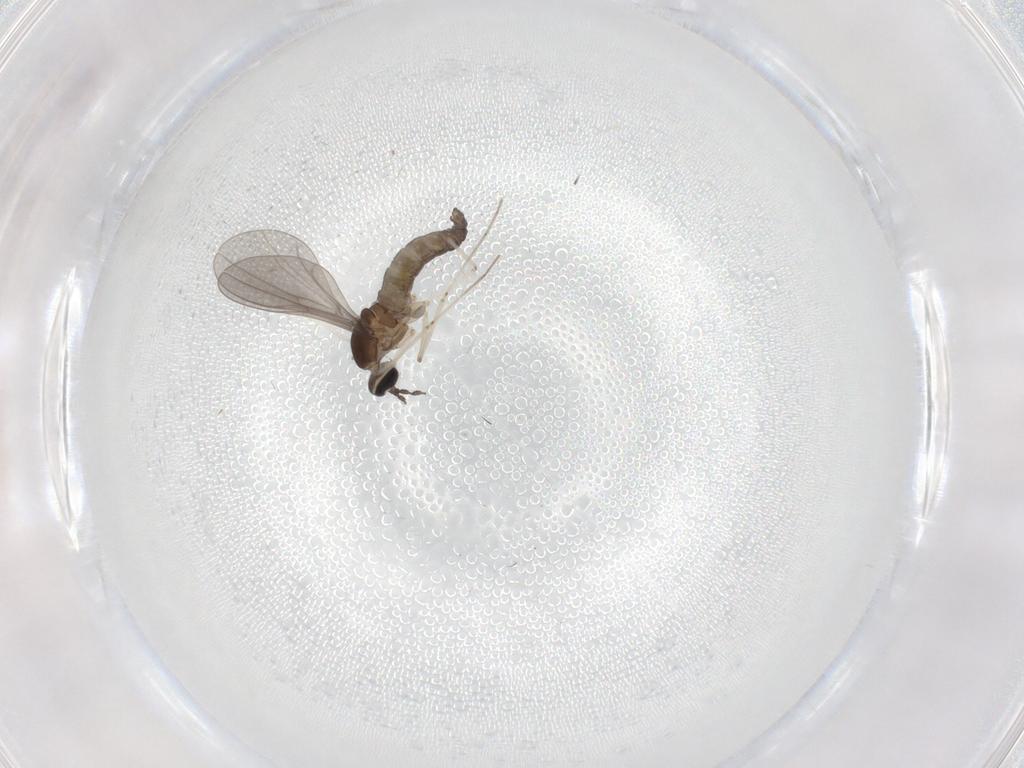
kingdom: Animalia
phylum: Arthropoda
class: Insecta
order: Diptera
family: Cecidomyiidae
